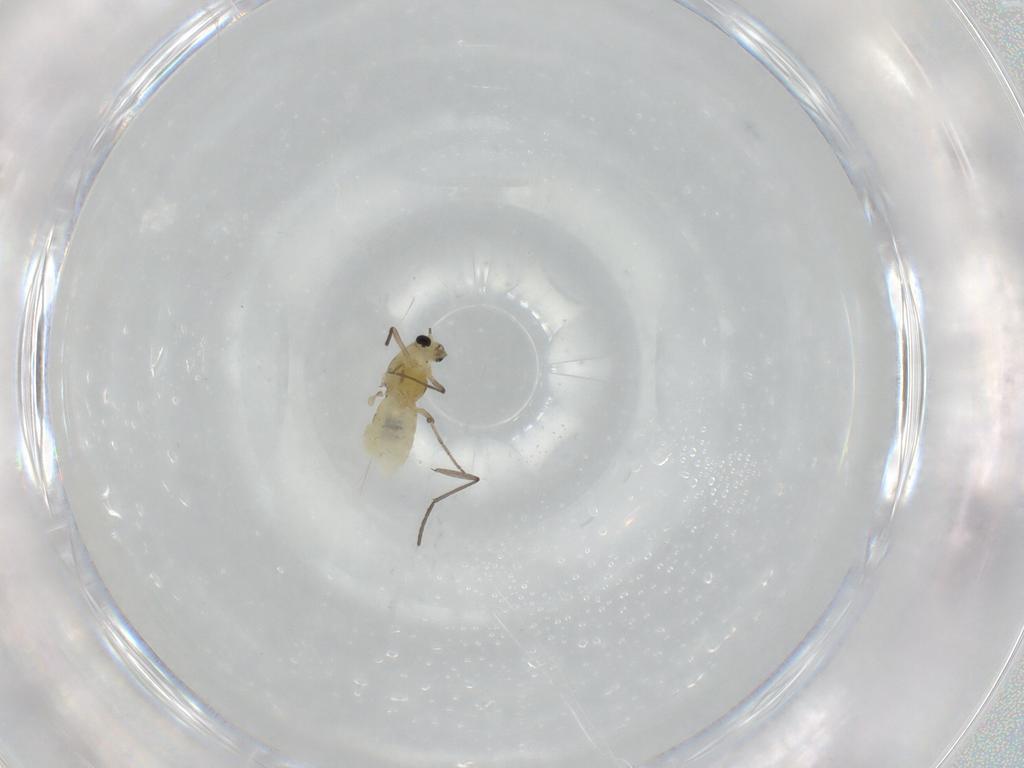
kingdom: Animalia
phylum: Arthropoda
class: Insecta
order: Diptera
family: Chironomidae
